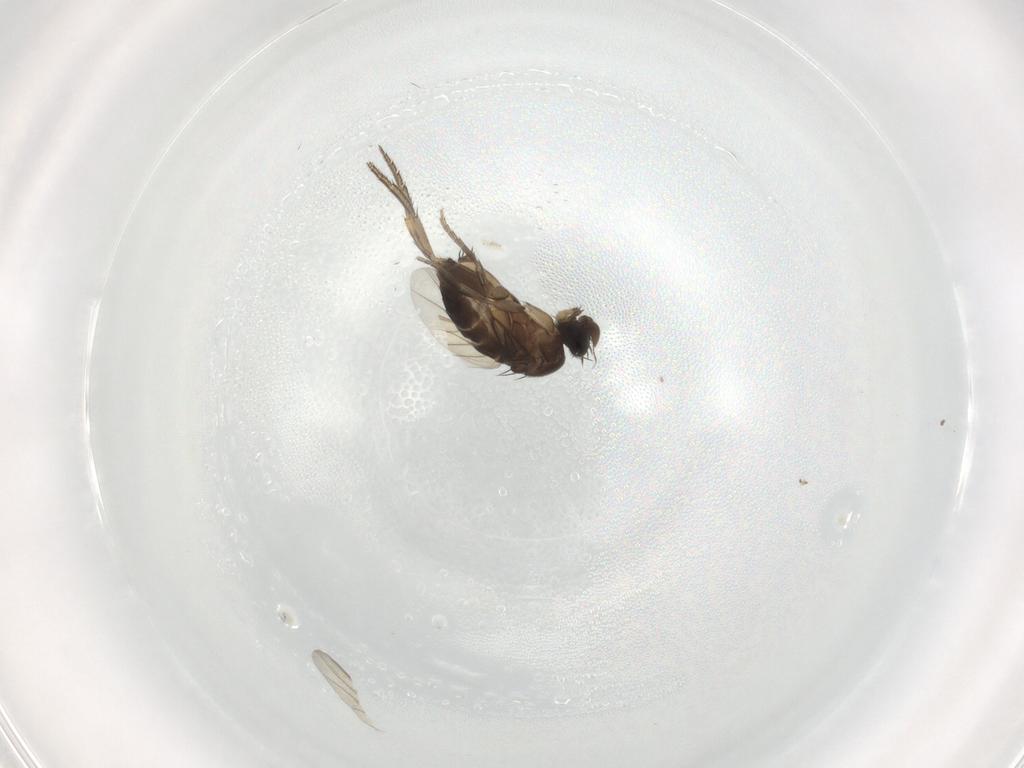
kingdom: Animalia
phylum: Arthropoda
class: Insecta
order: Diptera
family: Phoridae
